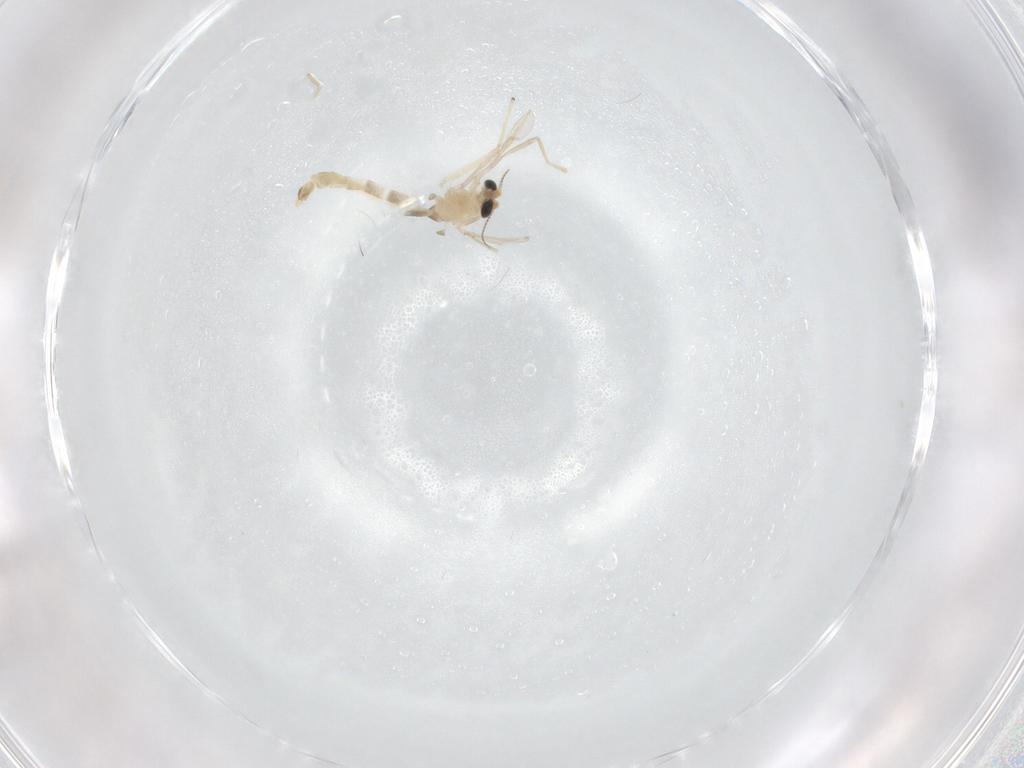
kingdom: Animalia
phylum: Arthropoda
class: Insecta
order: Diptera
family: Chironomidae
